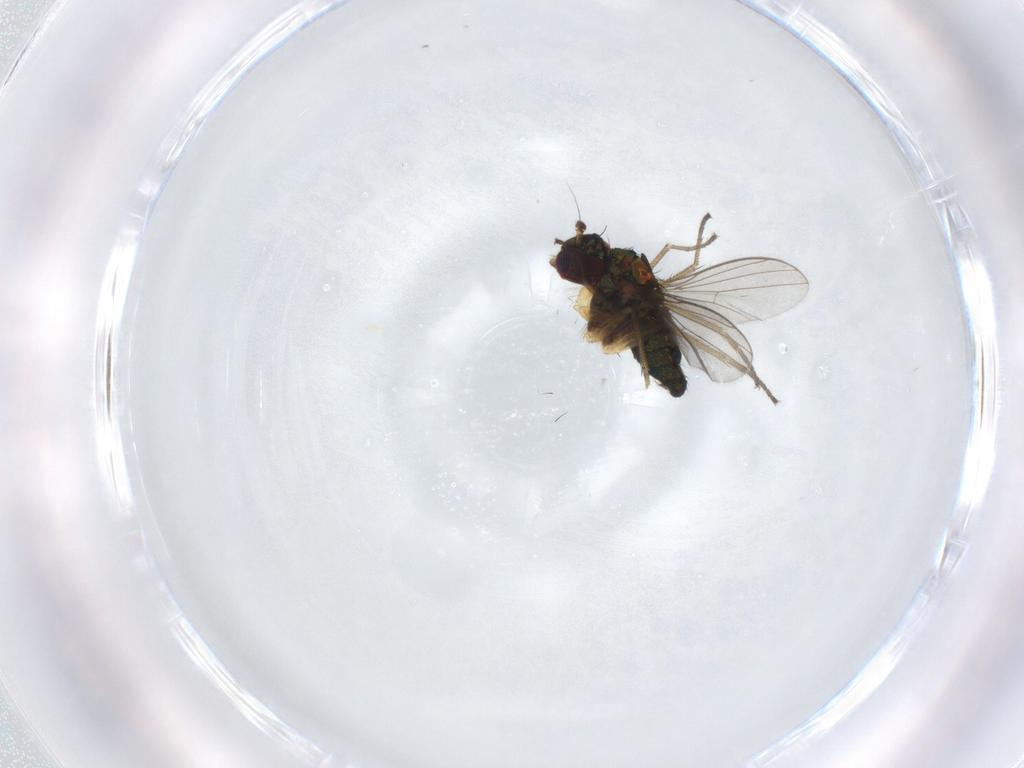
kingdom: Animalia
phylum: Arthropoda
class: Insecta
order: Diptera
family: Dolichopodidae
